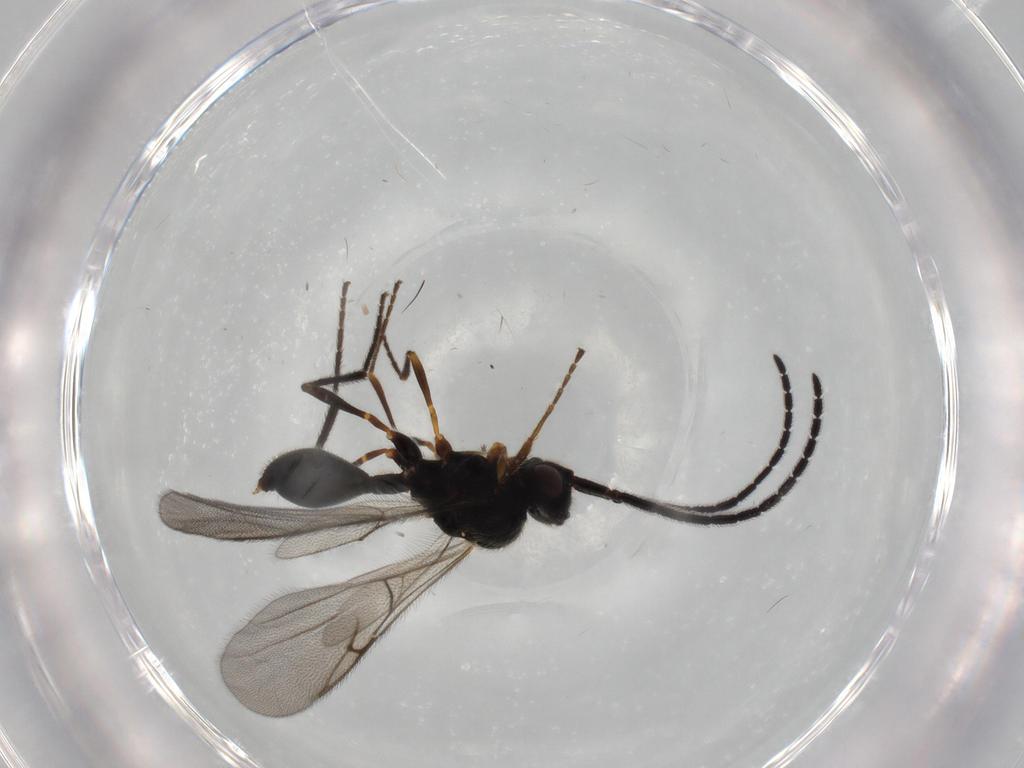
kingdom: Animalia
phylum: Arthropoda
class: Insecta
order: Hymenoptera
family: Diapriidae
